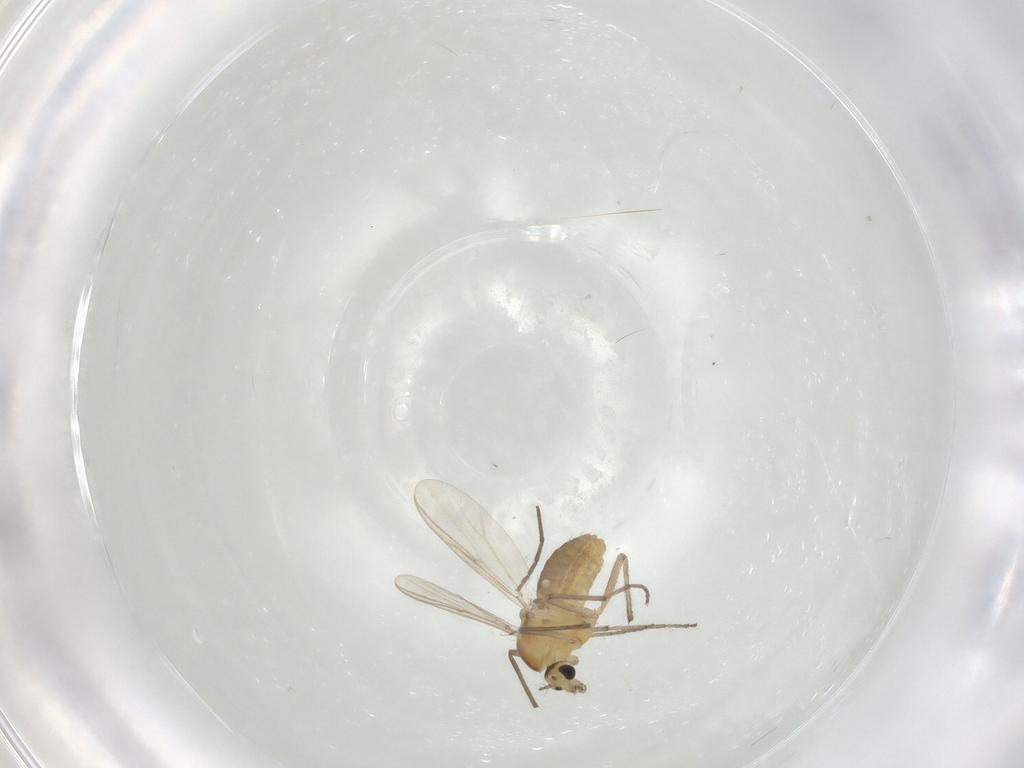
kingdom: Animalia
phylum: Arthropoda
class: Insecta
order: Diptera
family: Chironomidae
